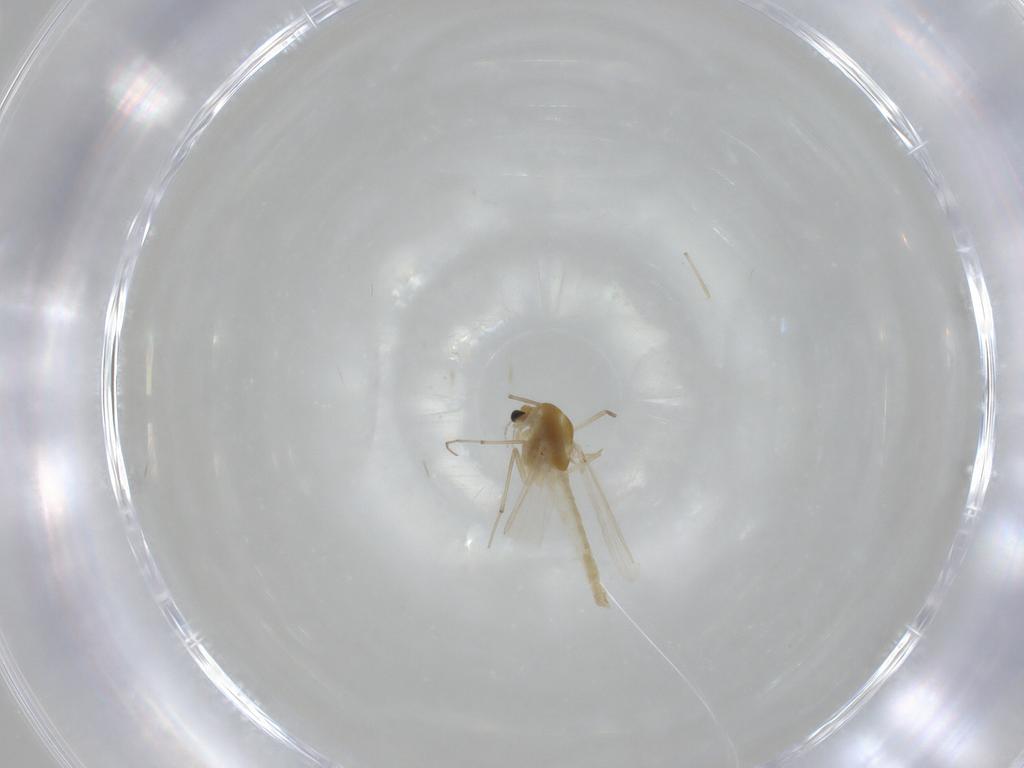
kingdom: Animalia
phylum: Arthropoda
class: Insecta
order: Diptera
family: Chironomidae
